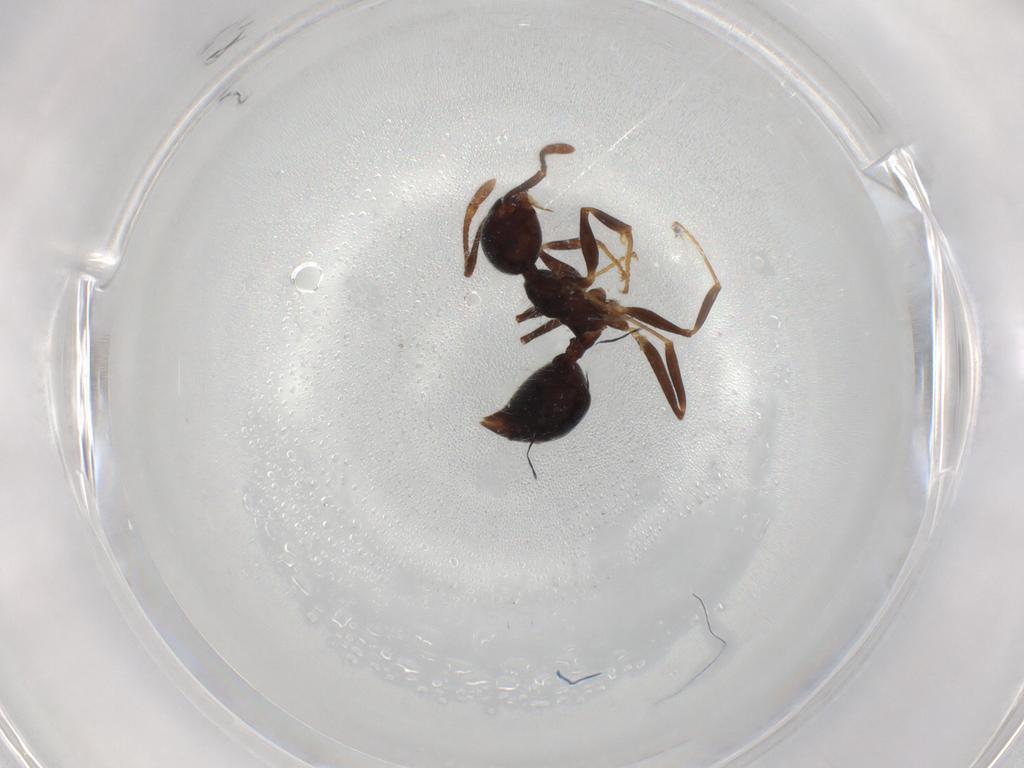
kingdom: Animalia
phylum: Arthropoda
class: Insecta
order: Hymenoptera
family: Formicidae
